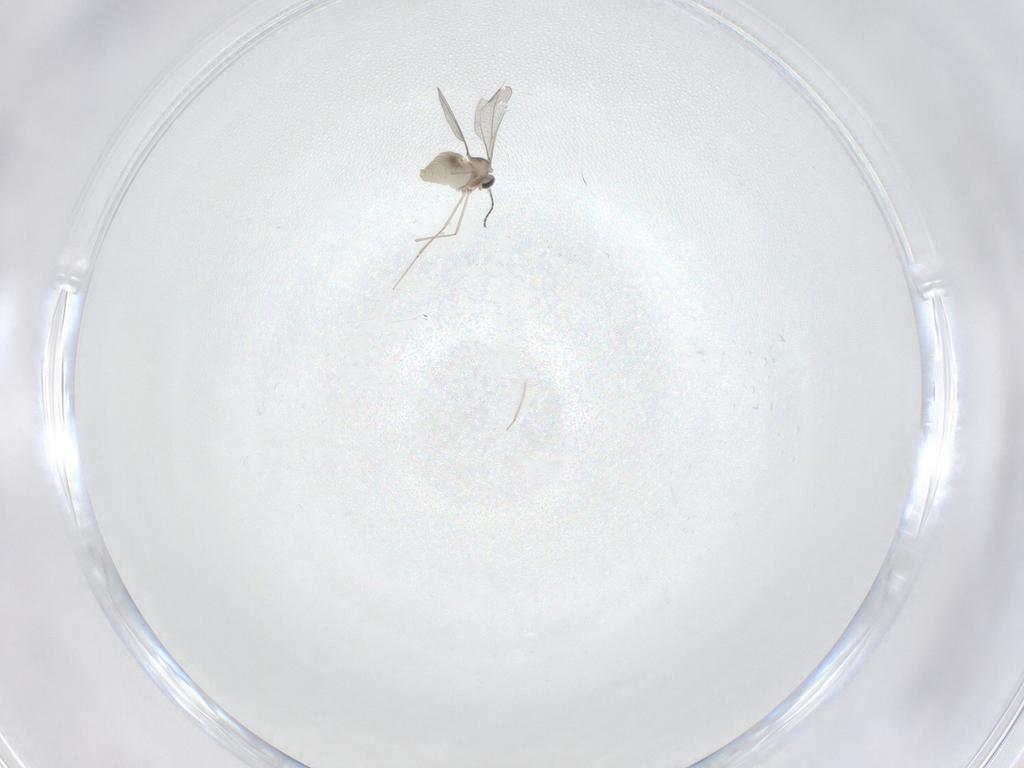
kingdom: Animalia
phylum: Arthropoda
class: Insecta
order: Diptera
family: Cecidomyiidae
